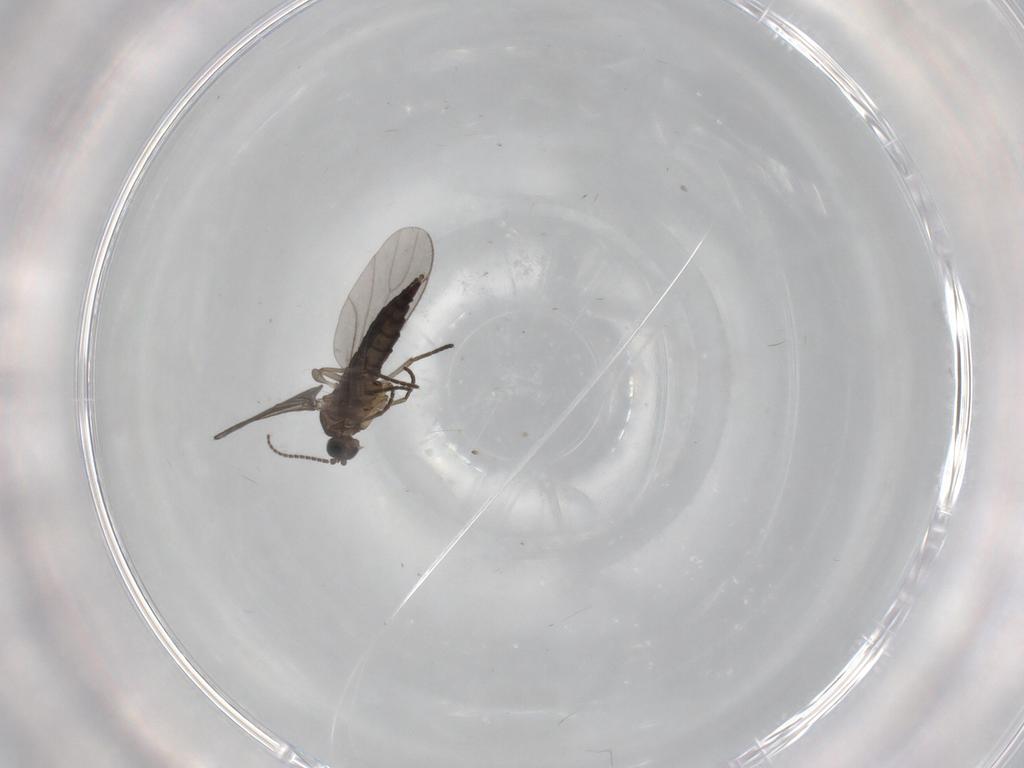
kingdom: Animalia
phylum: Arthropoda
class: Insecta
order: Diptera
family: Sciaridae
